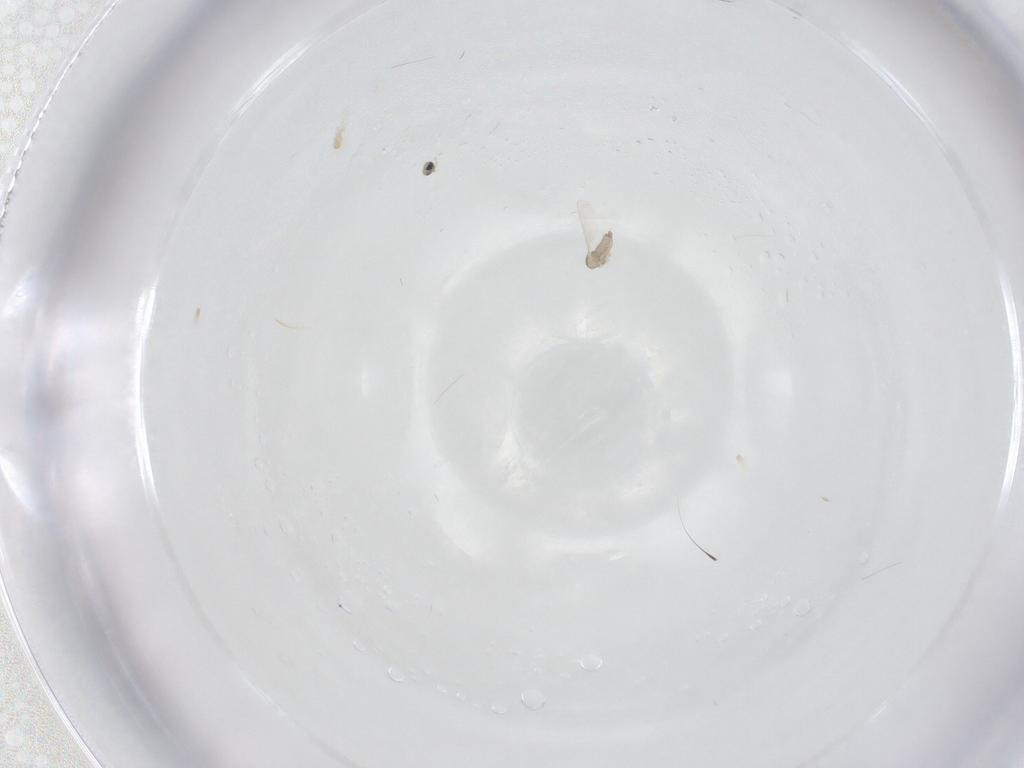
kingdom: Animalia
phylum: Arthropoda
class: Insecta
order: Diptera
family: Cecidomyiidae
